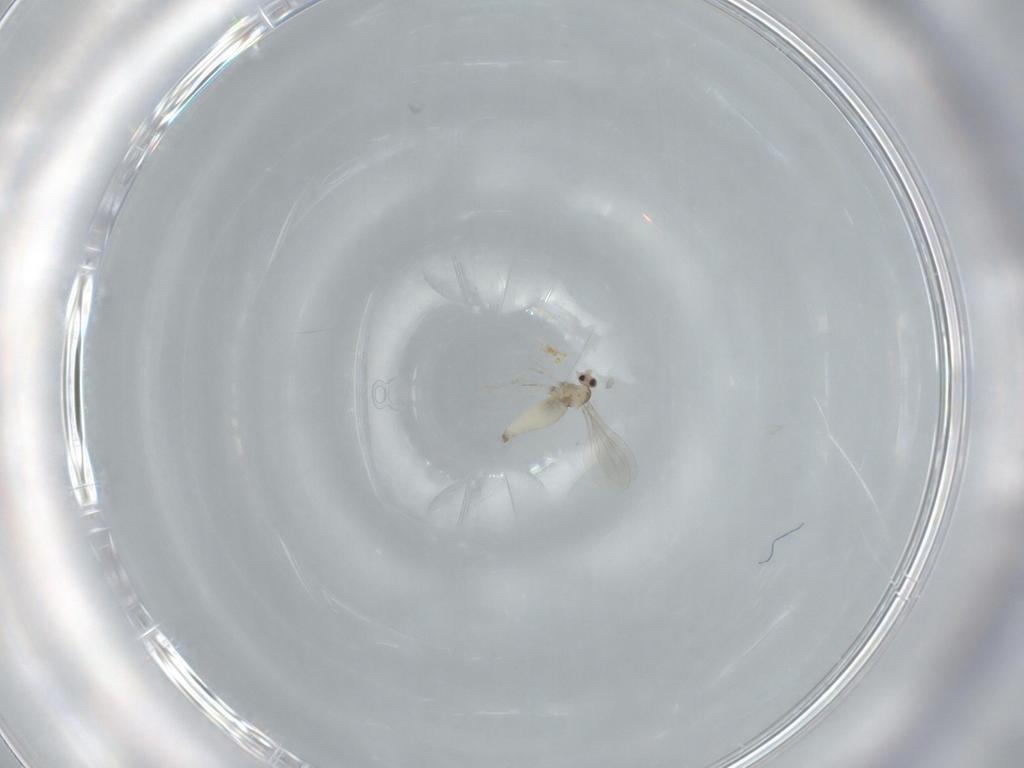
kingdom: Animalia
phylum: Arthropoda
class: Insecta
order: Diptera
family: Cecidomyiidae
